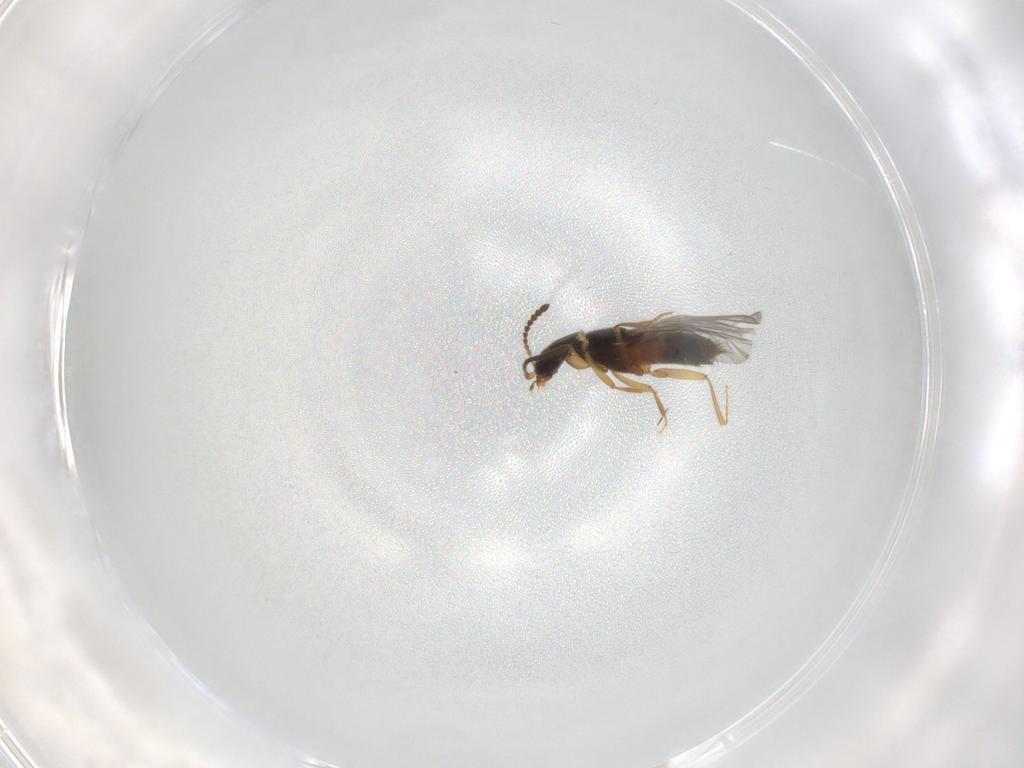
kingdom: Animalia
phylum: Arthropoda
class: Insecta
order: Coleoptera
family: Staphylinidae
